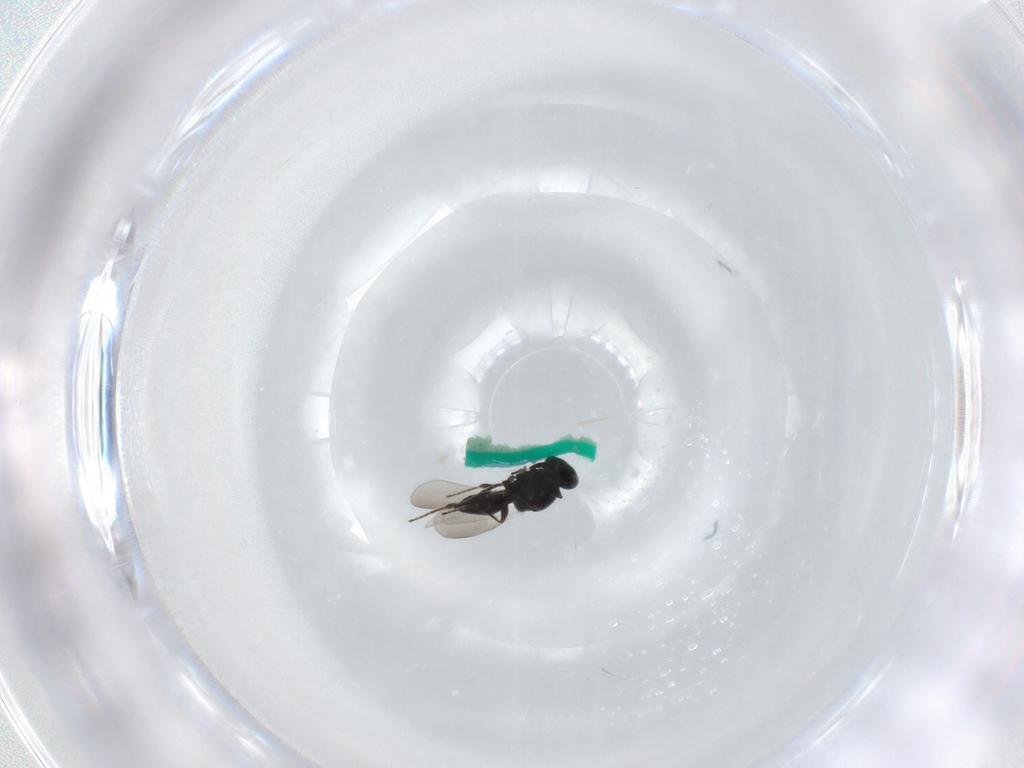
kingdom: Animalia
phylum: Arthropoda
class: Insecta
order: Hymenoptera
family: Platygastridae
